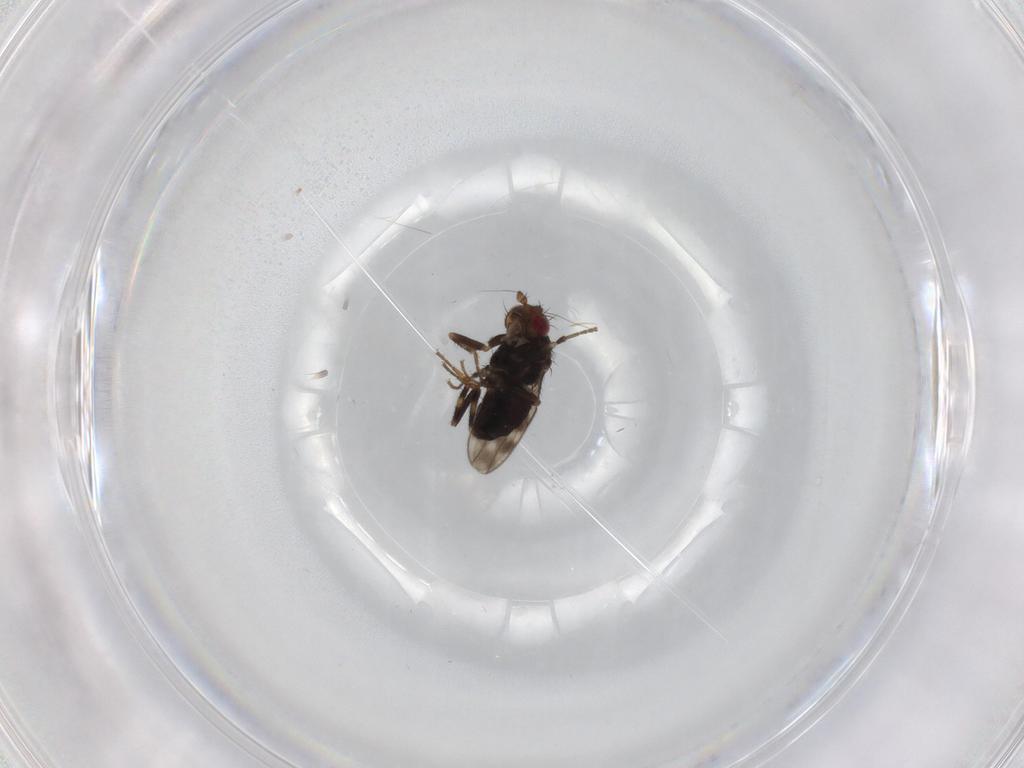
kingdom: Animalia
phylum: Arthropoda
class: Insecta
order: Diptera
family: Sphaeroceridae
